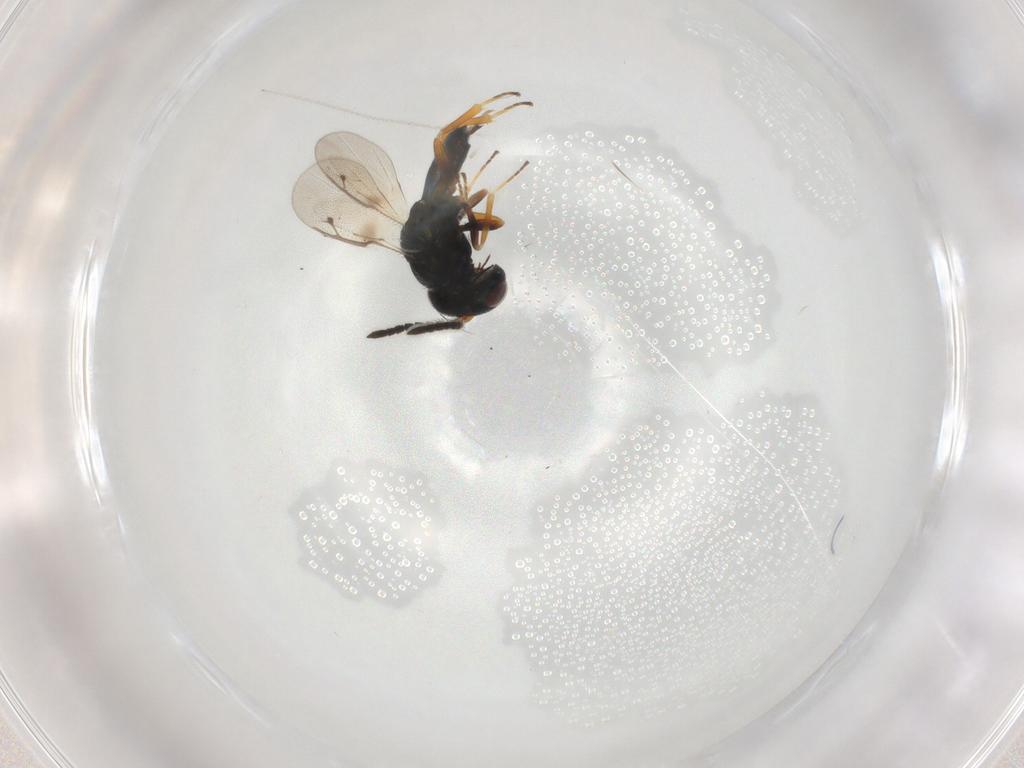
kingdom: Animalia
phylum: Arthropoda
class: Insecta
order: Hymenoptera
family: Pteromalidae
